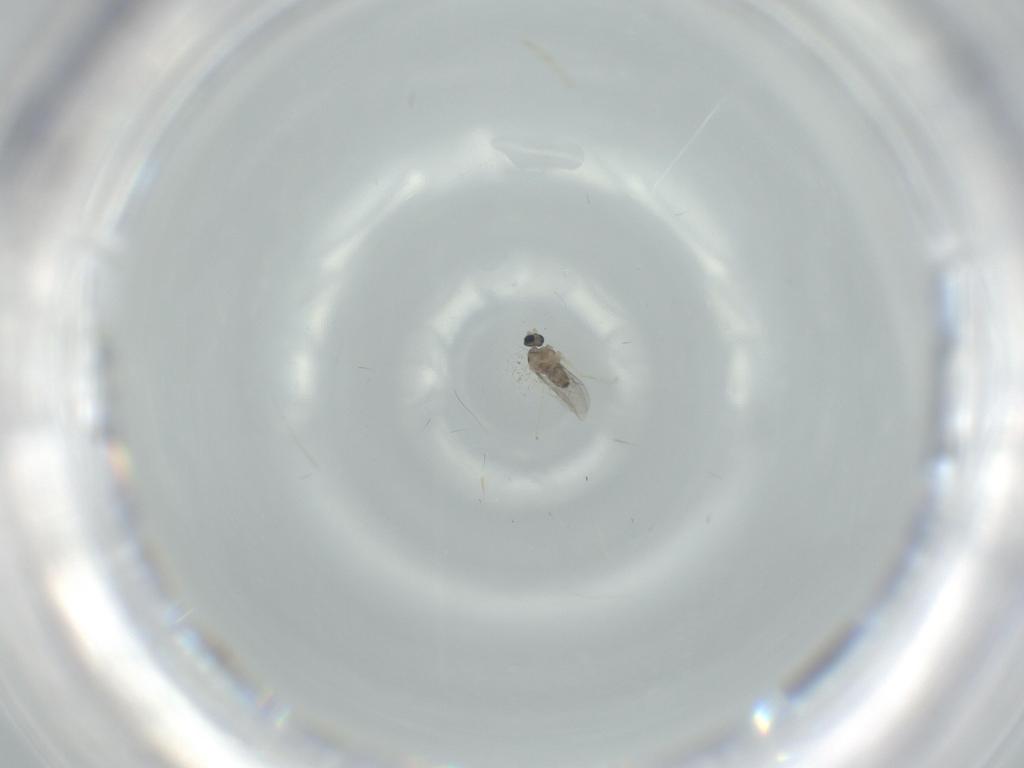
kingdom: Animalia
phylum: Arthropoda
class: Insecta
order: Diptera
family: Cecidomyiidae
